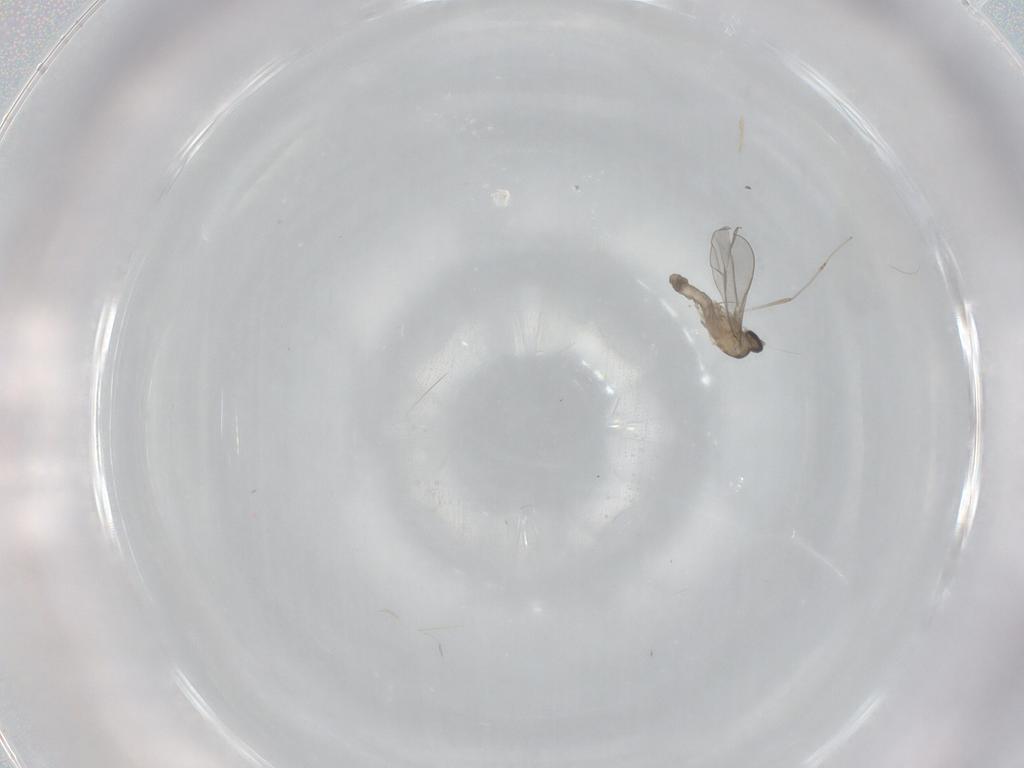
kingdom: Animalia
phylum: Arthropoda
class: Insecta
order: Diptera
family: Cecidomyiidae
